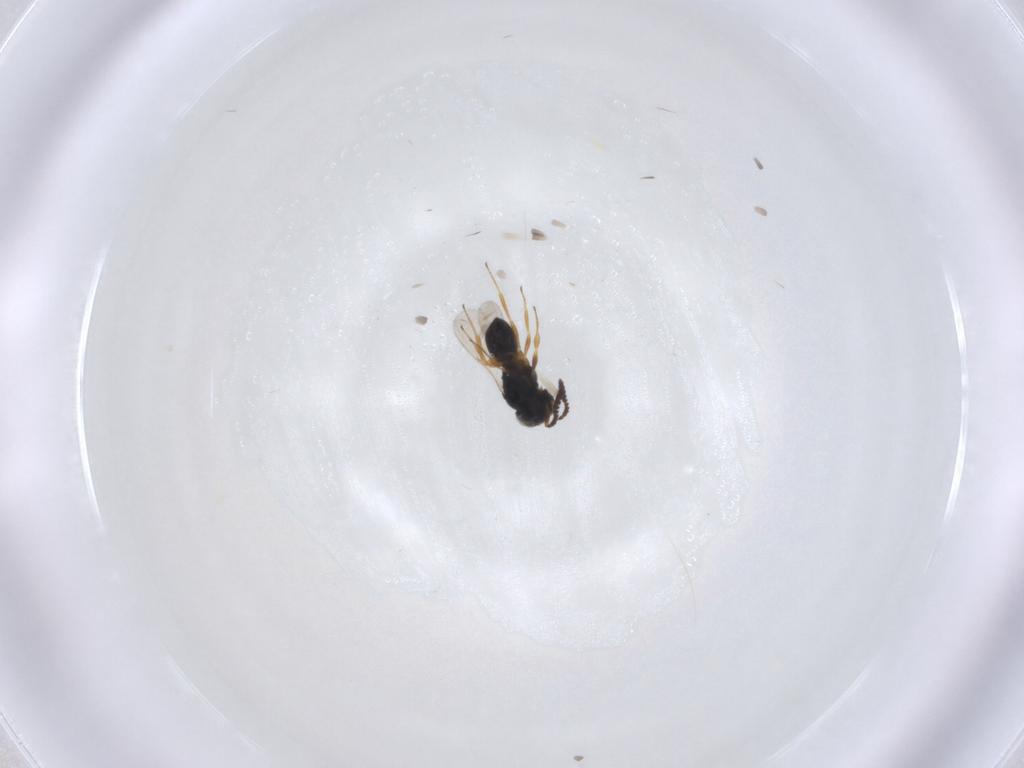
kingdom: Animalia
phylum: Arthropoda
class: Insecta
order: Hymenoptera
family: Scelionidae
